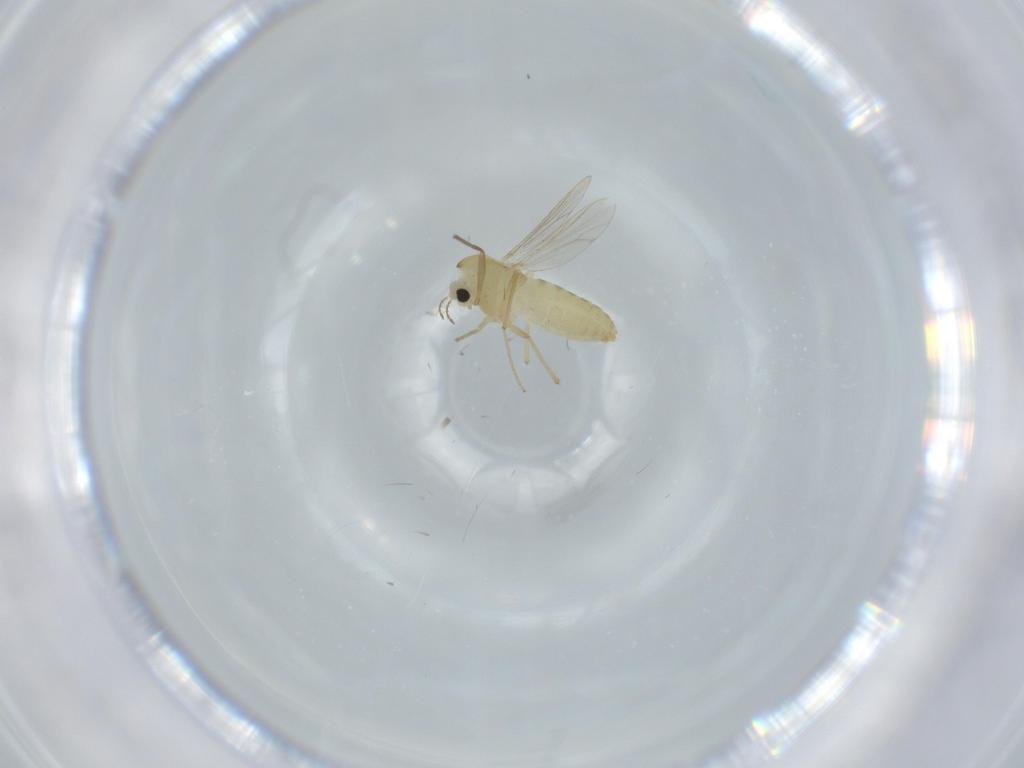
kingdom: Animalia
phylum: Arthropoda
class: Insecta
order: Diptera
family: Chironomidae
